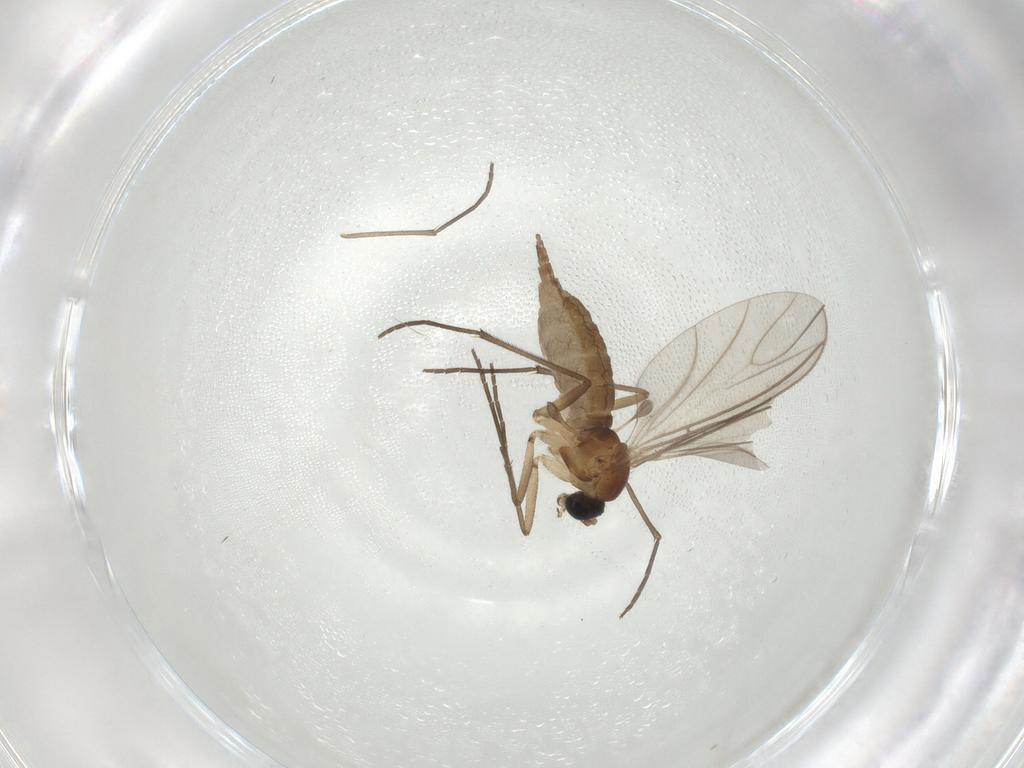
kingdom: Animalia
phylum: Arthropoda
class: Insecta
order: Diptera
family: Sciaridae
